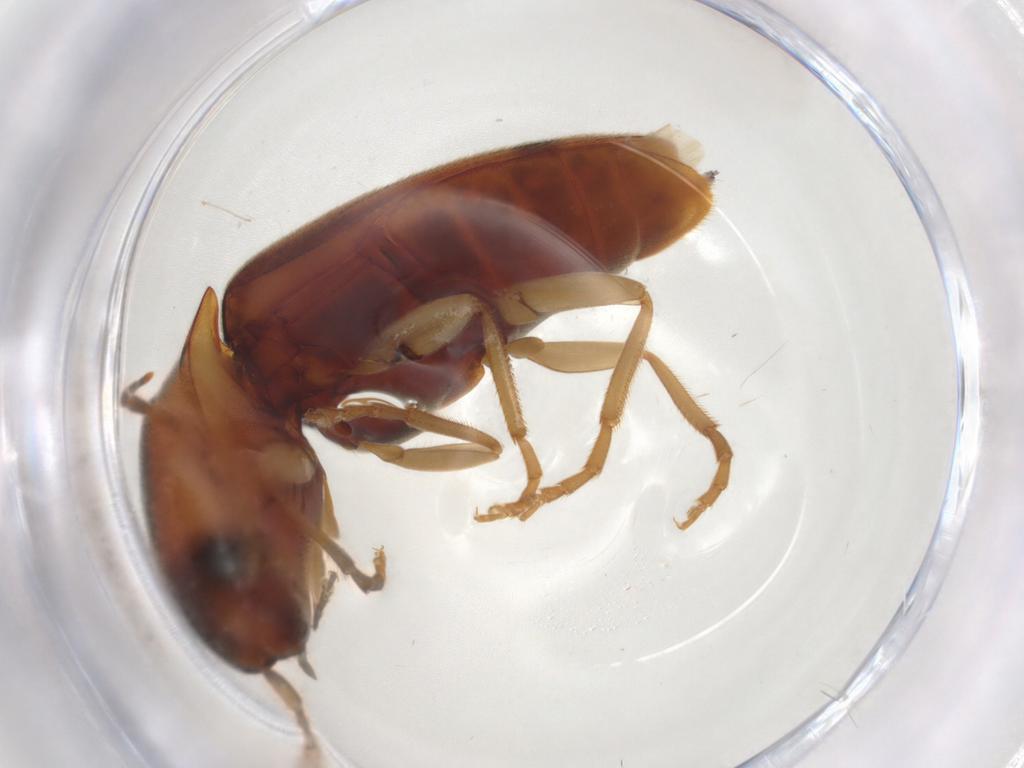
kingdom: Animalia
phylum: Arthropoda
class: Insecta
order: Coleoptera
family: Elateridae
